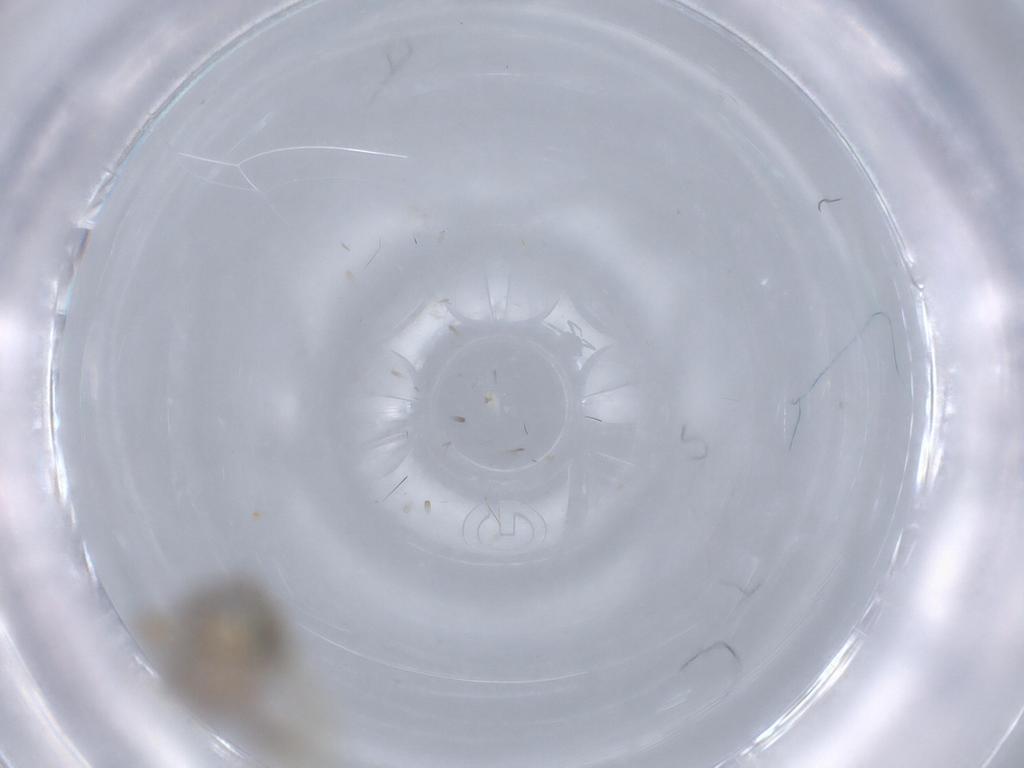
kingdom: Animalia
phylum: Arthropoda
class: Insecta
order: Hemiptera
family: Cicadellidae
